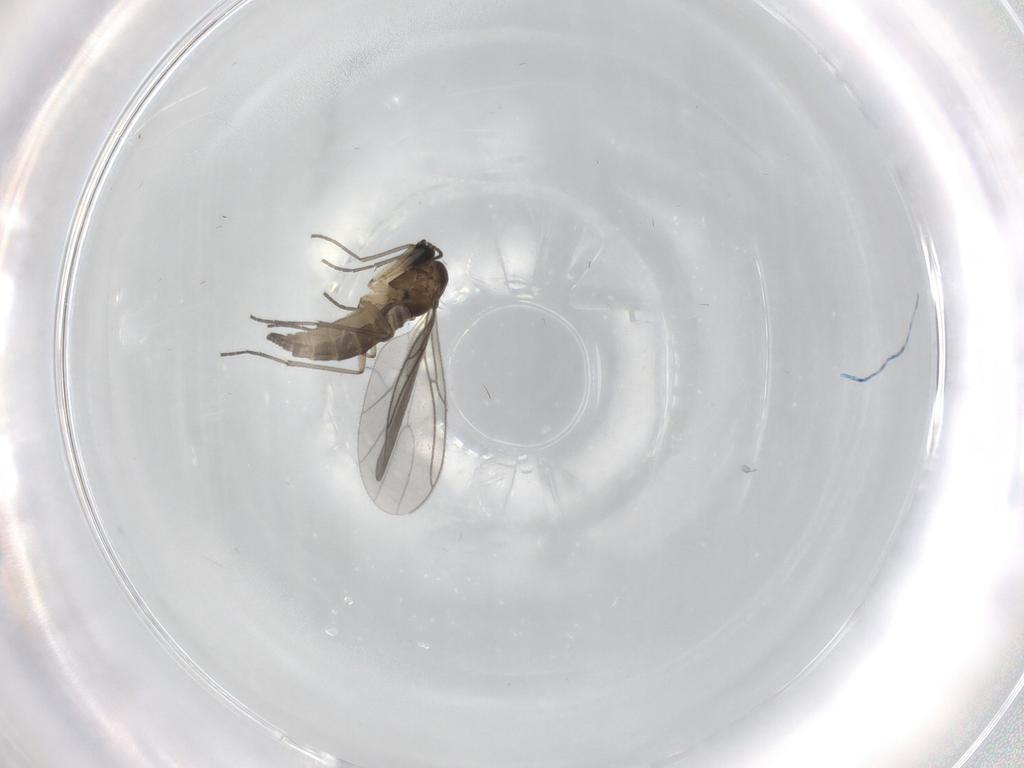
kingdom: Animalia
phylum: Arthropoda
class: Insecta
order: Diptera
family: Sciaridae
